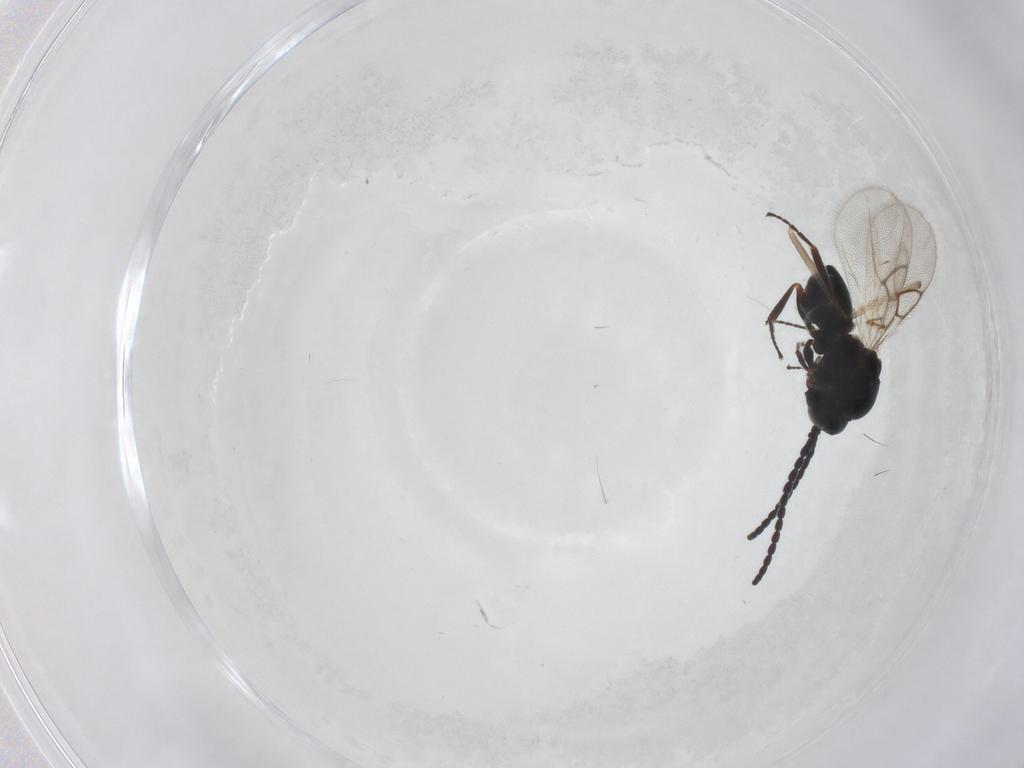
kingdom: Animalia
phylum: Arthropoda
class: Insecta
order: Hymenoptera
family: Figitidae
